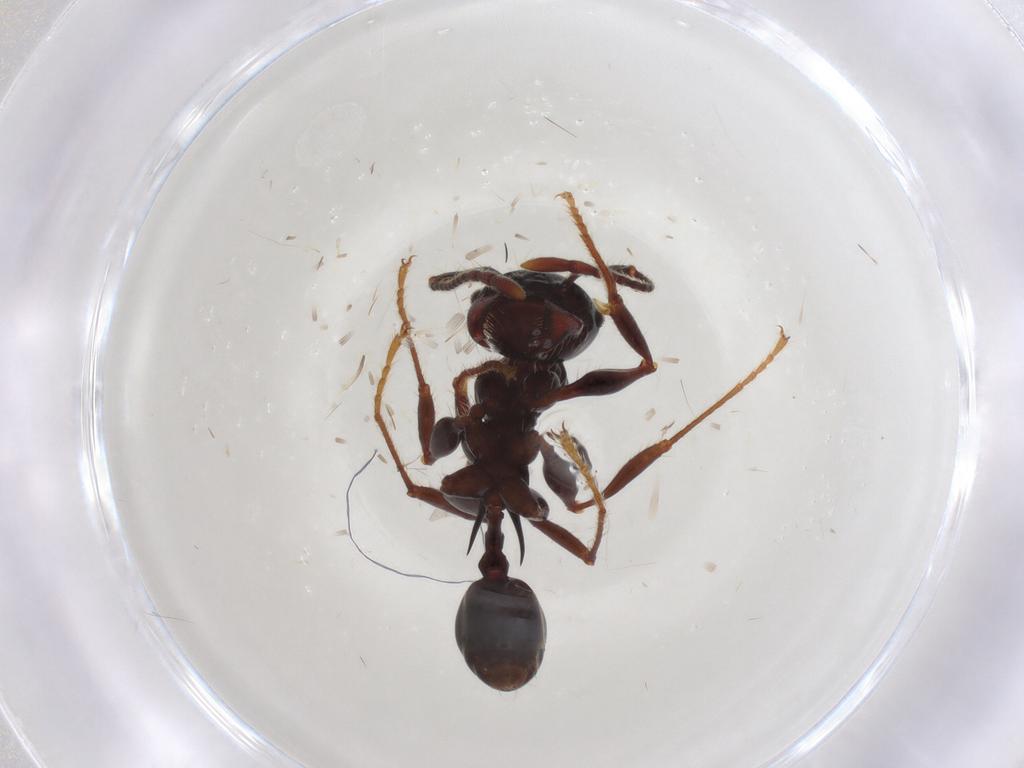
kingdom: Animalia
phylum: Arthropoda
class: Insecta
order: Hymenoptera
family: Formicidae
